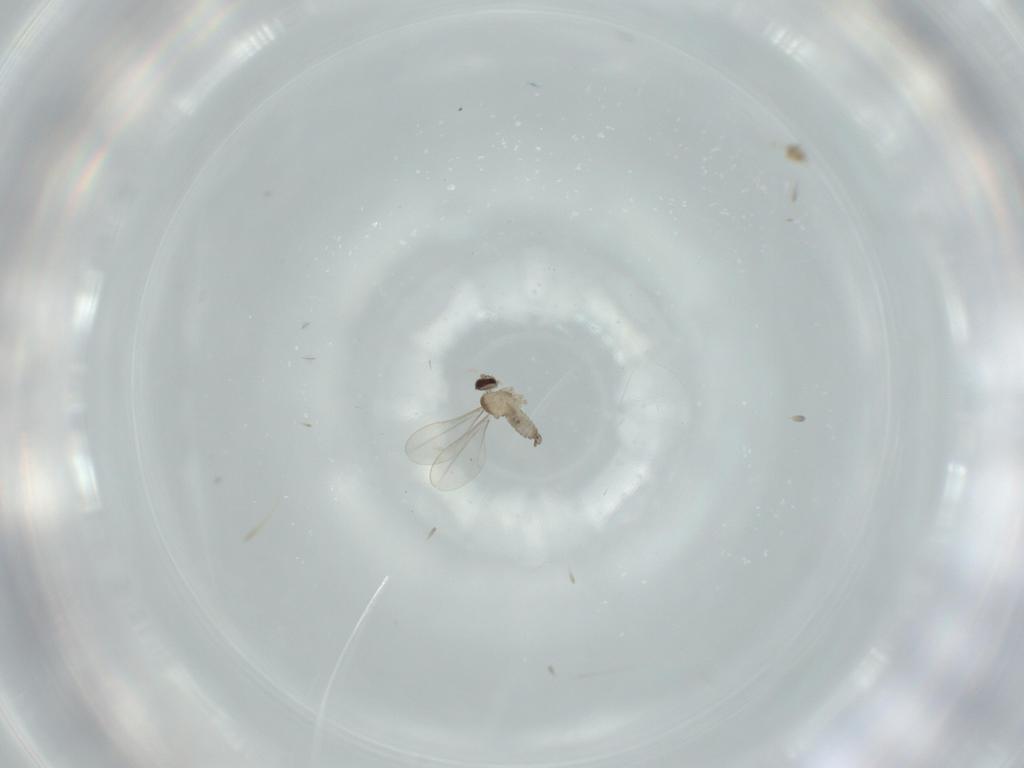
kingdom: Animalia
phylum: Arthropoda
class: Insecta
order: Diptera
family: Cecidomyiidae
